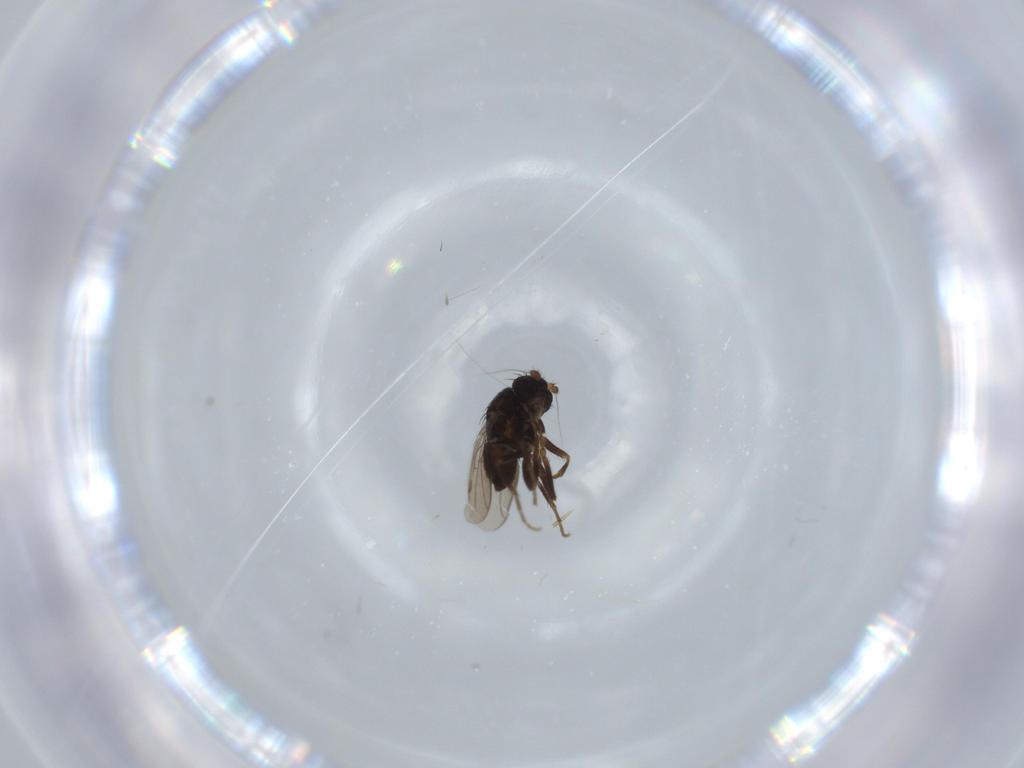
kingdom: Animalia
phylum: Arthropoda
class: Insecta
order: Diptera
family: Sphaeroceridae
